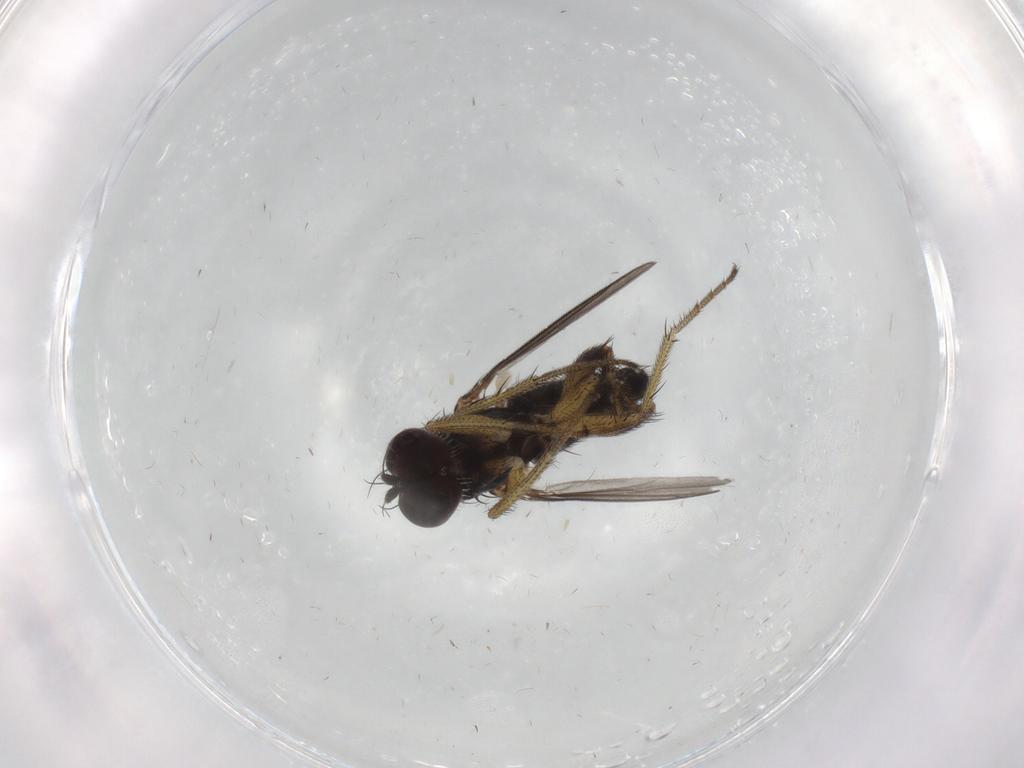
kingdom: Animalia
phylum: Arthropoda
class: Insecta
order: Diptera
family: Dolichopodidae
